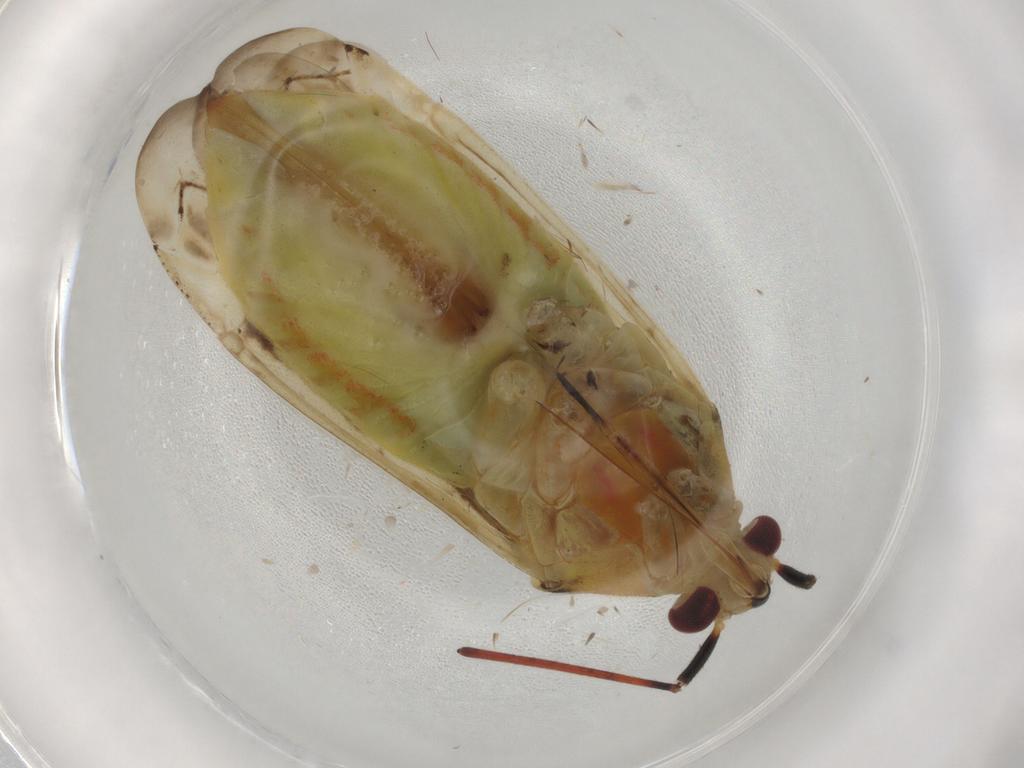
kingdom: Animalia
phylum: Arthropoda
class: Insecta
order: Hemiptera
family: Miridae
